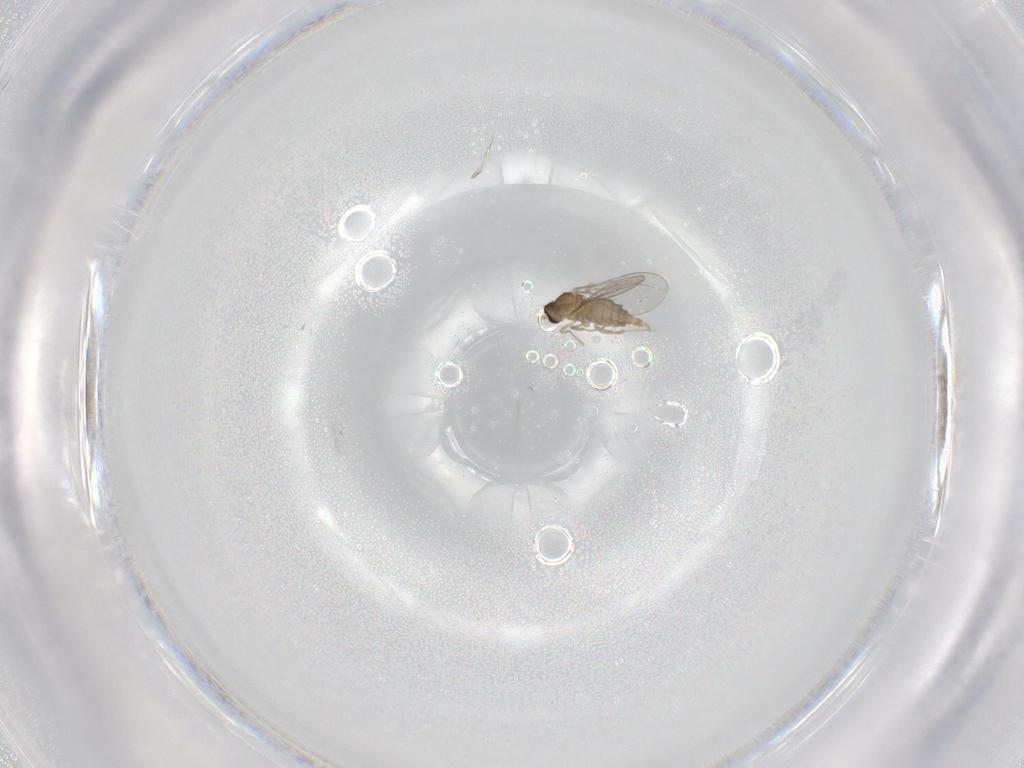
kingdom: Animalia
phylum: Arthropoda
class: Insecta
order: Diptera
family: Cecidomyiidae
